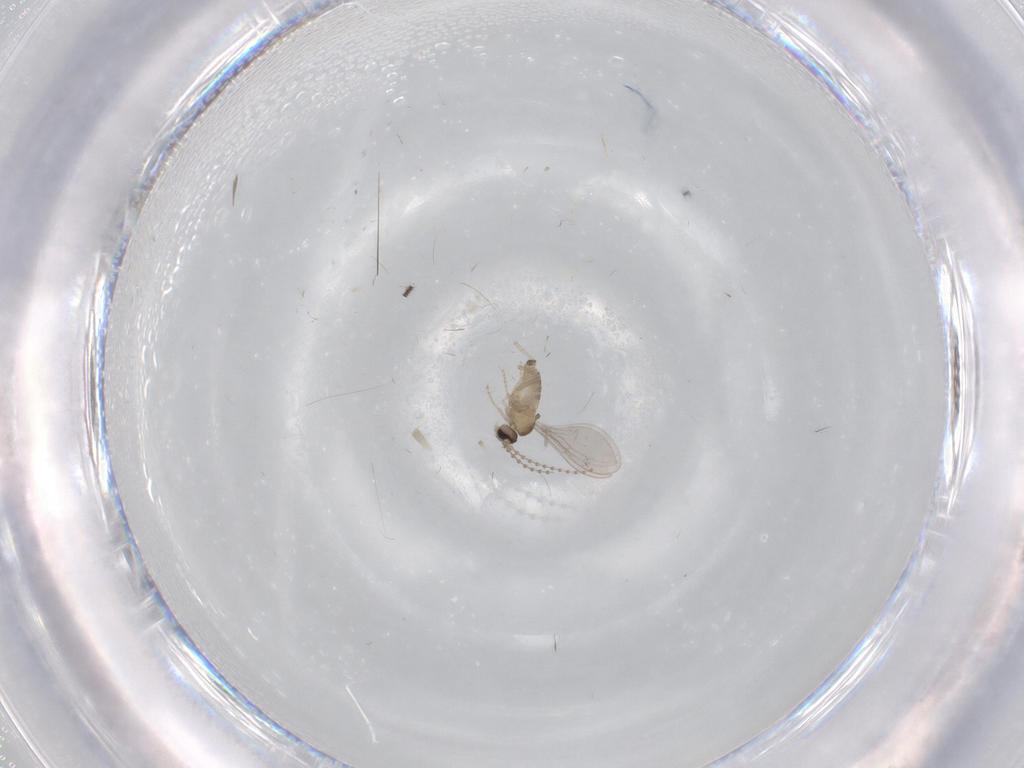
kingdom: Animalia
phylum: Arthropoda
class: Insecta
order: Diptera
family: Cecidomyiidae
